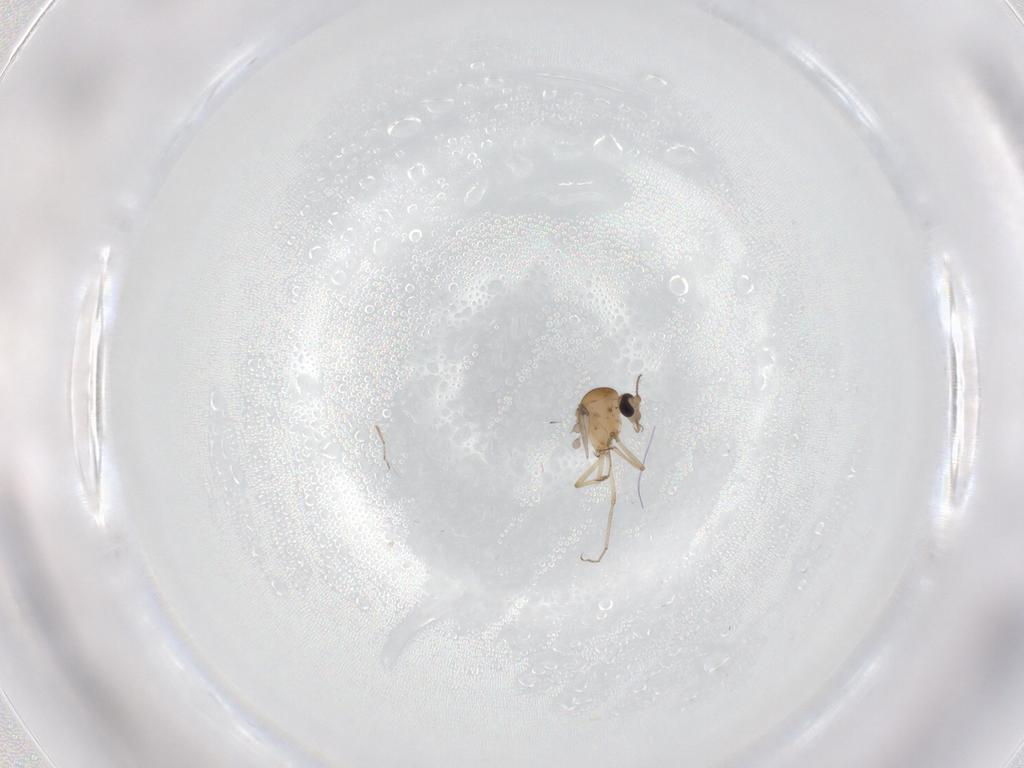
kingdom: Animalia
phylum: Arthropoda
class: Insecta
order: Diptera
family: Ceratopogonidae
